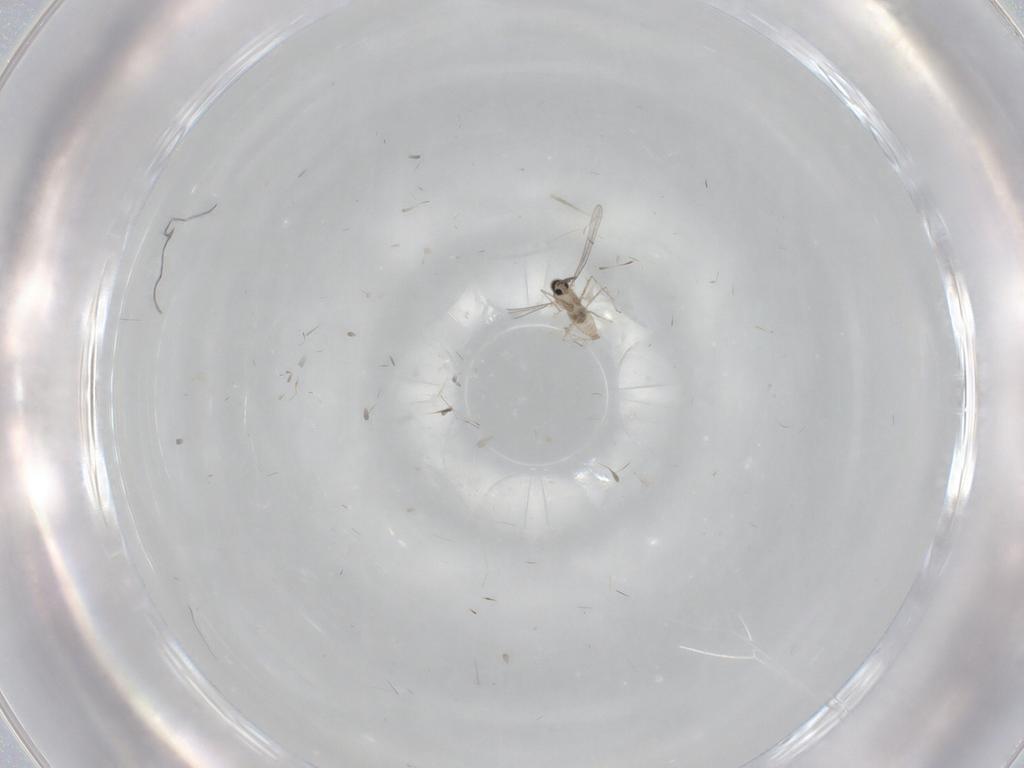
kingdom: Animalia
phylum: Arthropoda
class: Insecta
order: Diptera
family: Cecidomyiidae
